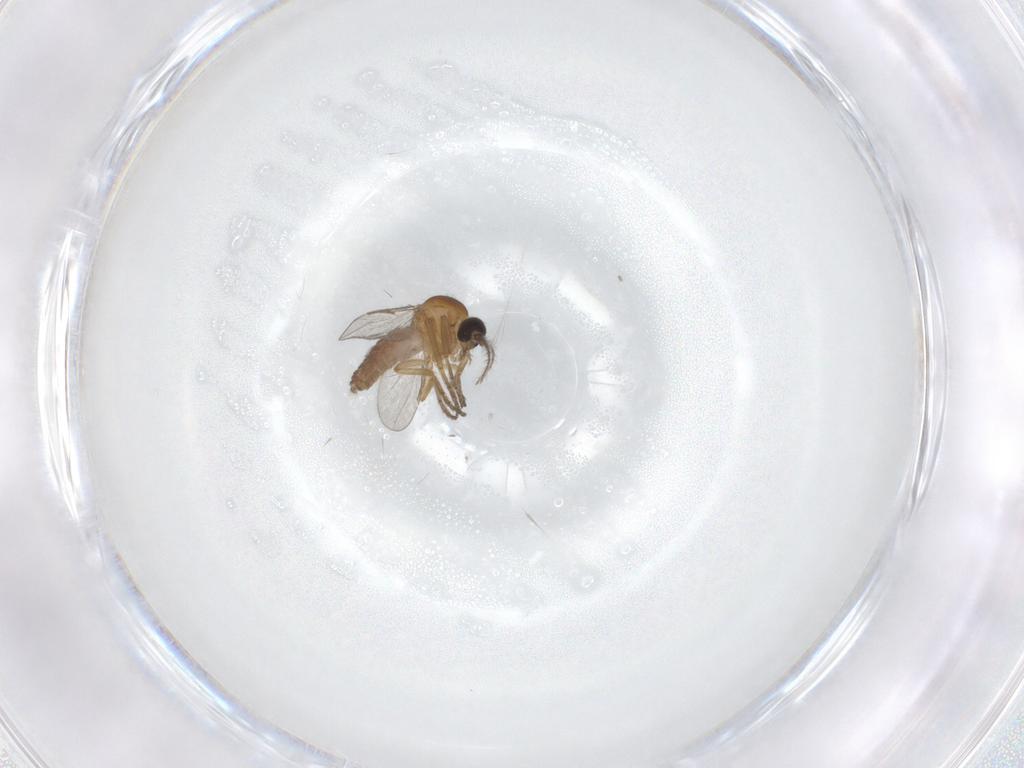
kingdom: Animalia
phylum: Arthropoda
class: Insecta
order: Diptera
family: Ceratopogonidae
